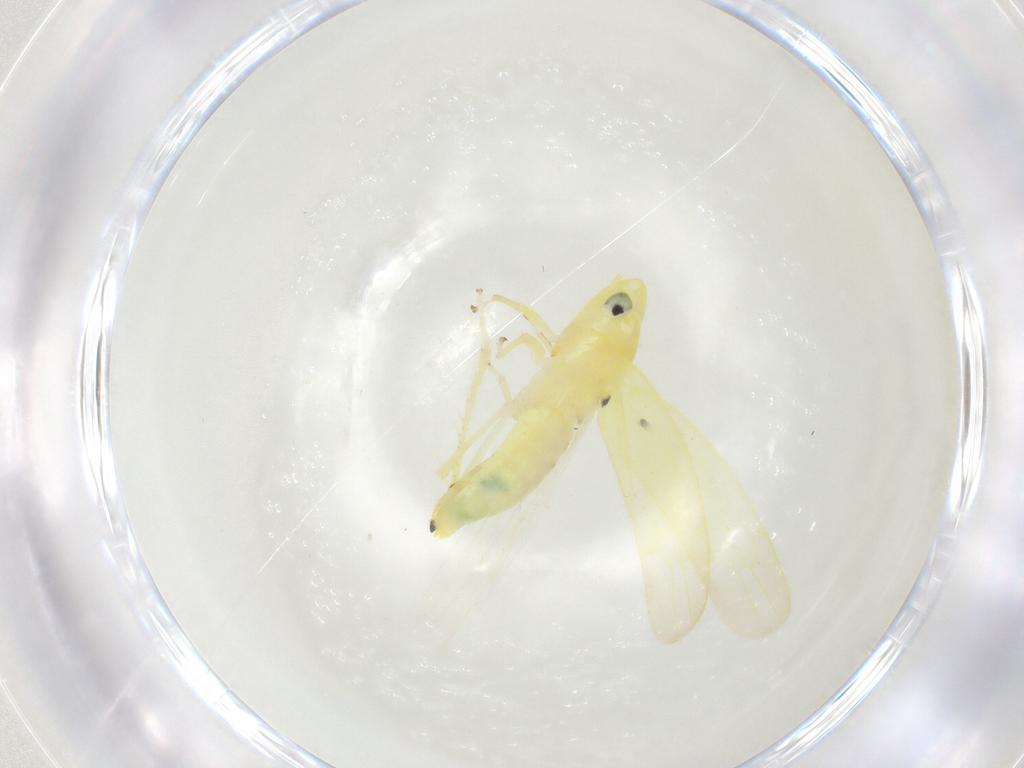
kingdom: Animalia
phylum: Arthropoda
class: Insecta
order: Hemiptera
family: Cicadellidae
